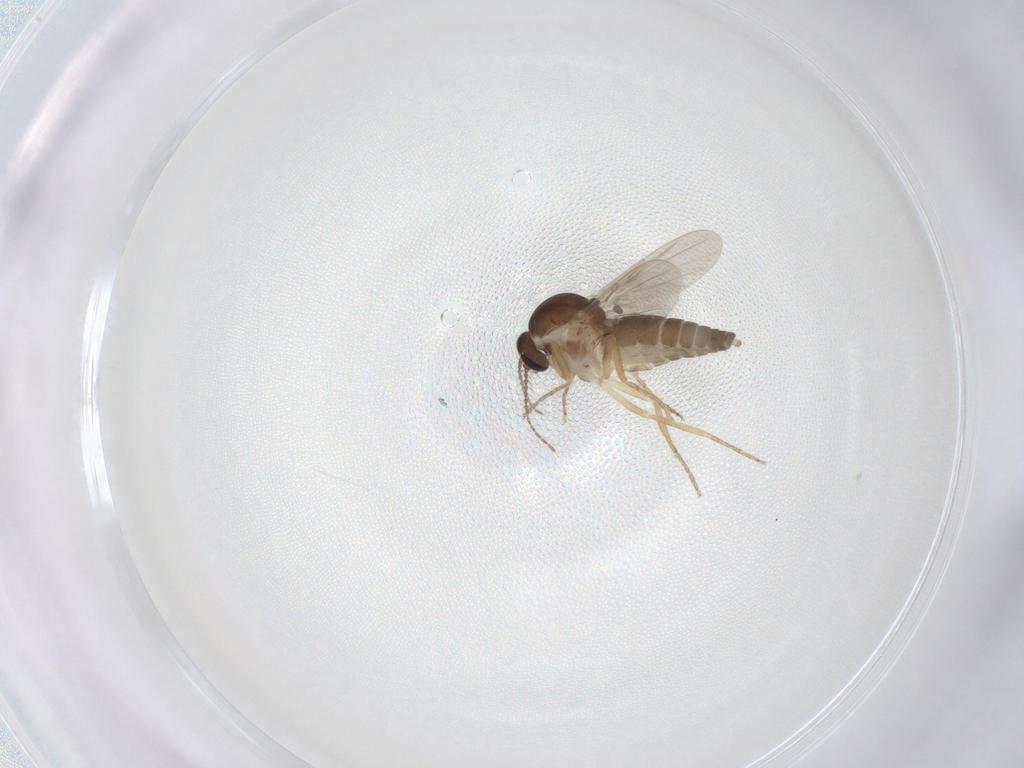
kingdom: Animalia
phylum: Arthropoda
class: Insecta
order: Diptera
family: Ceratopogonidae
